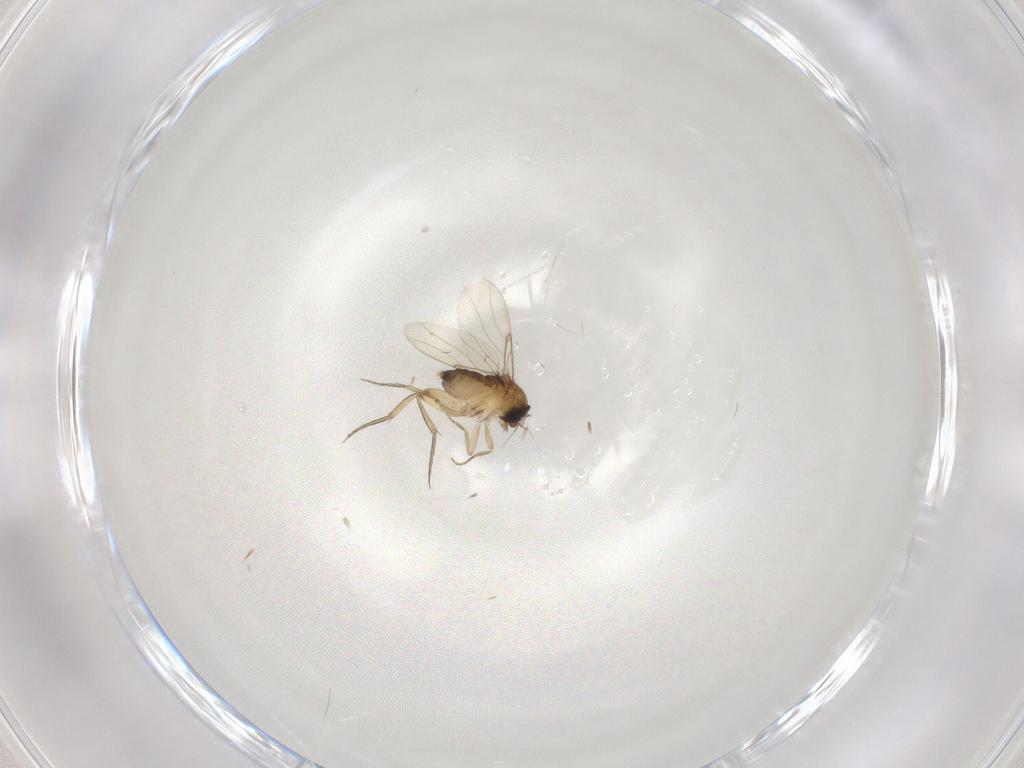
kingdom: Animalia
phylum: Arthropoda
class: Insecta
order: Diptera
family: Phoridae
